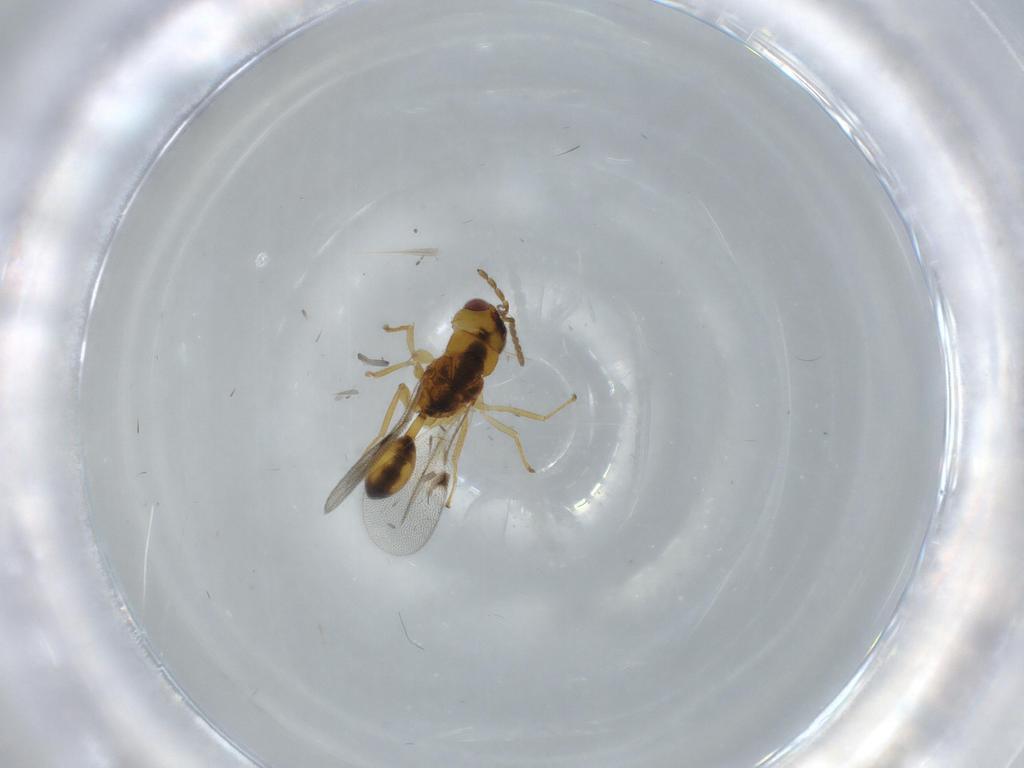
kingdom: Animalia
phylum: Arthropoda
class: Insecta
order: Hymenoptera
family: Eurytomidae
